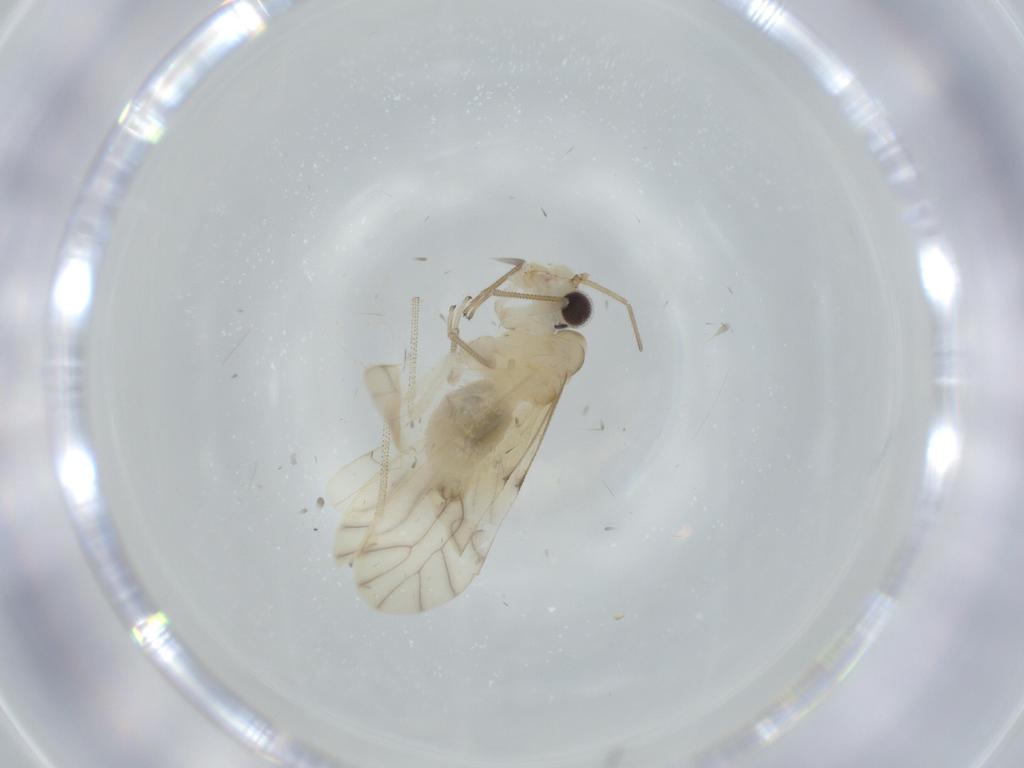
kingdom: Animalia
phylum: Arthropoda
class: Insecta
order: Psocodea
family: Caeciliusidae
